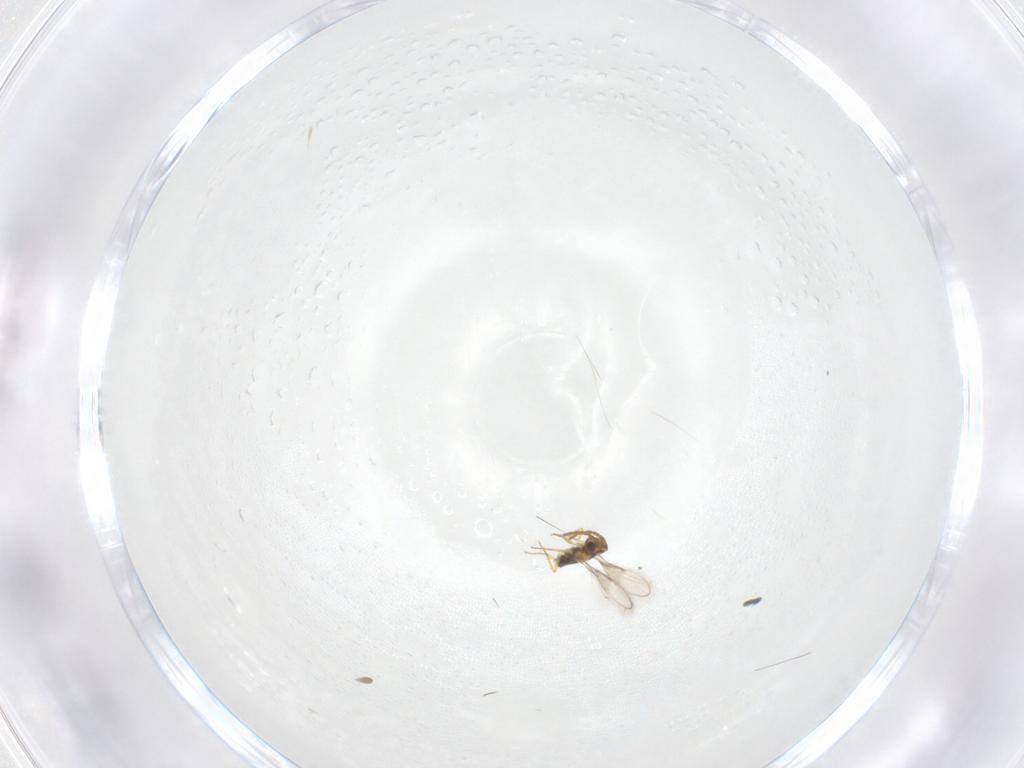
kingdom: Animalia
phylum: Arthropoda
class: Insecta
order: Hymenoptera
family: Aphelinidae
